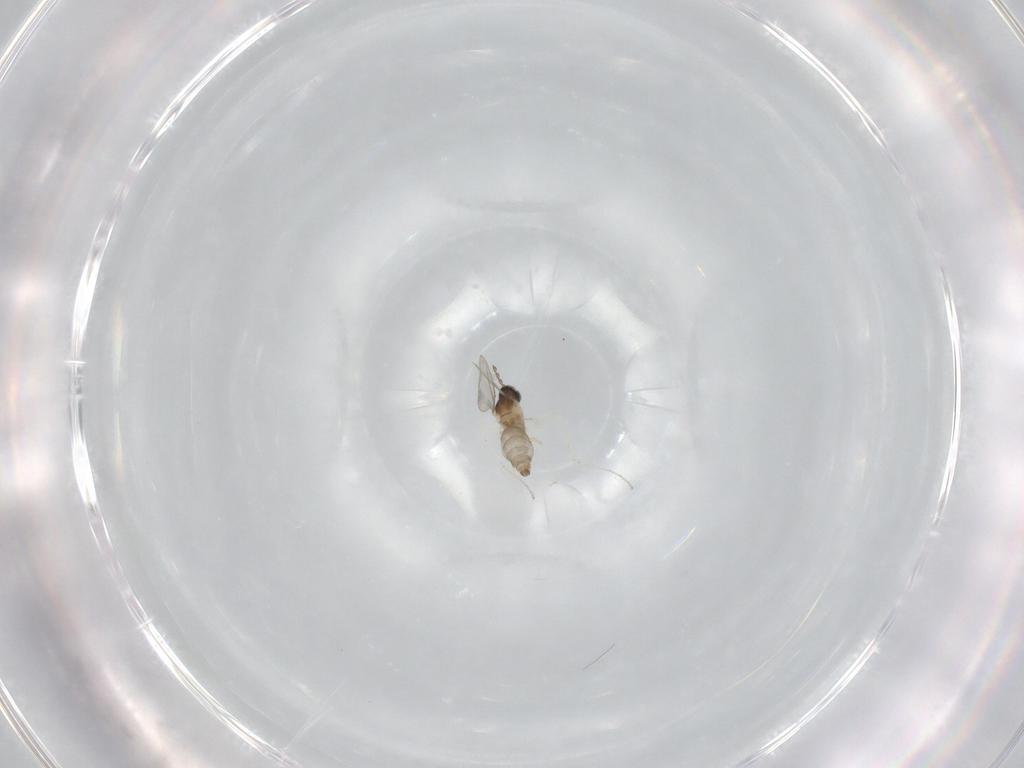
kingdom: Animalia
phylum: Arthropoda
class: Insecta
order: Diptera
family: Cecidomyiidae
